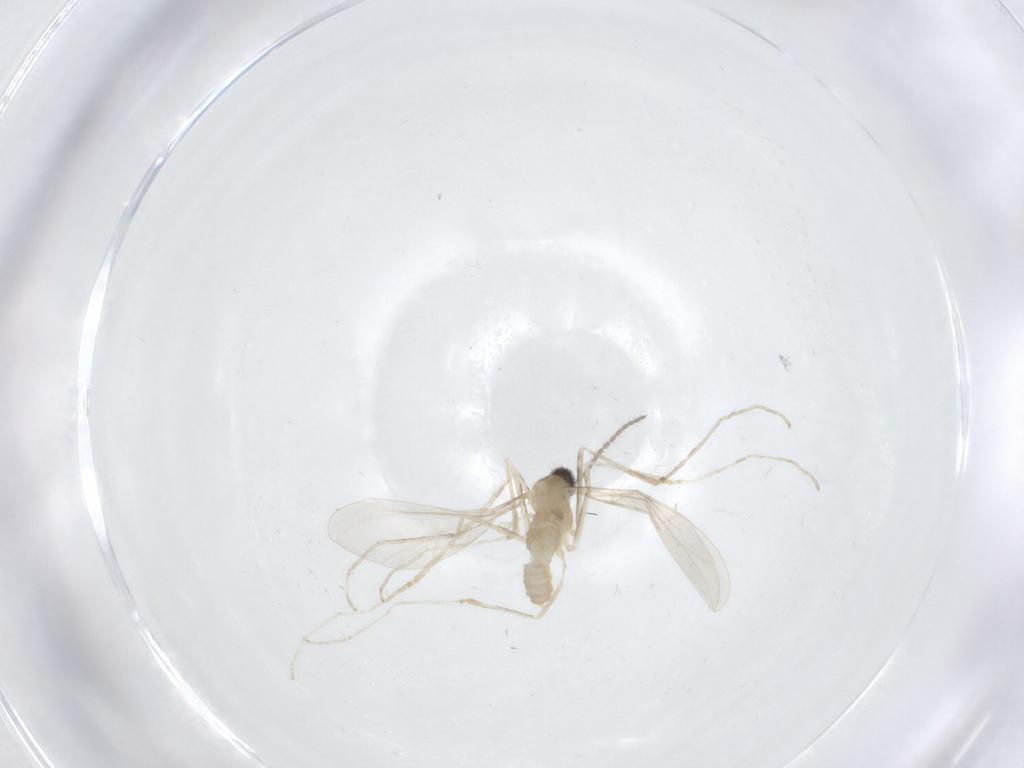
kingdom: Animalia
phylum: Arthropoda
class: Insecta
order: Diptera
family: Cecidomyiidae
